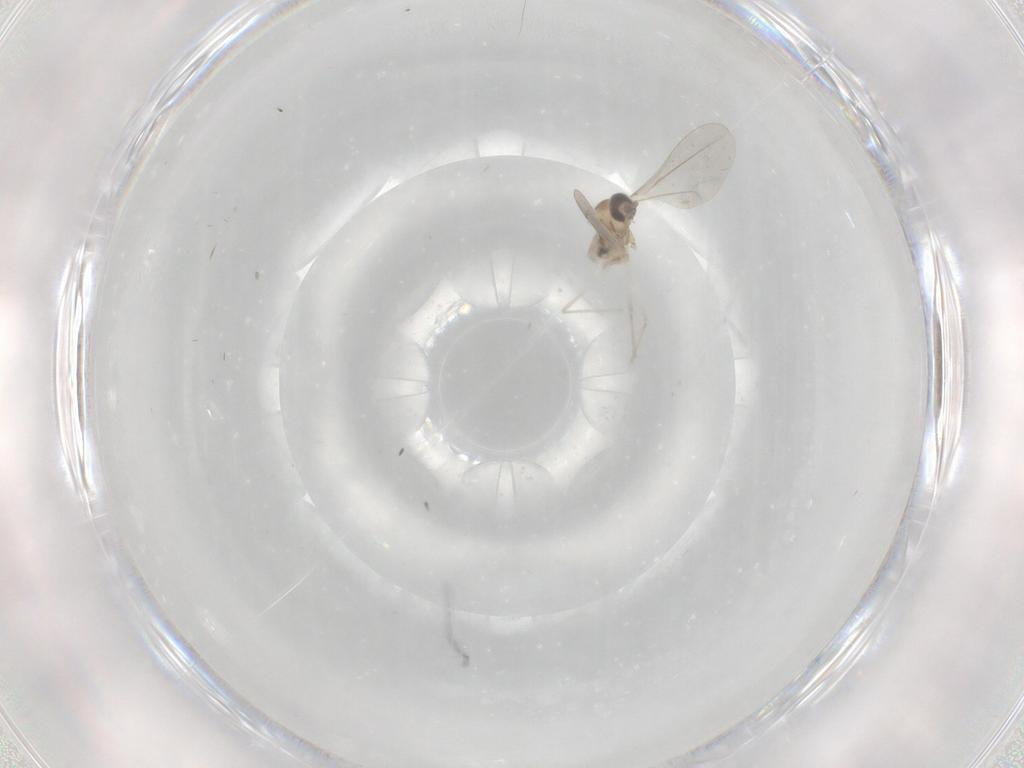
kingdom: Animalia
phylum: Arthropoda
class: Insecta
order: Diptera
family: Cecidomyiidae
